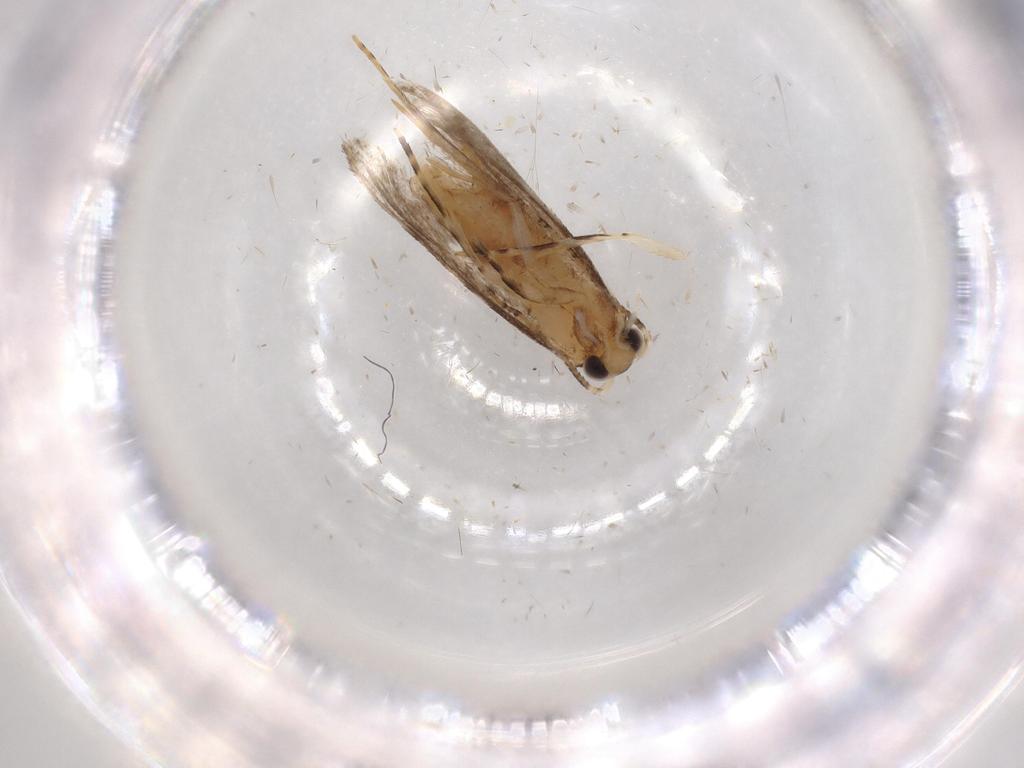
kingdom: Animalia
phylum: Arthropoda
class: Insecta
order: Lepidoptera
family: Tineidae
